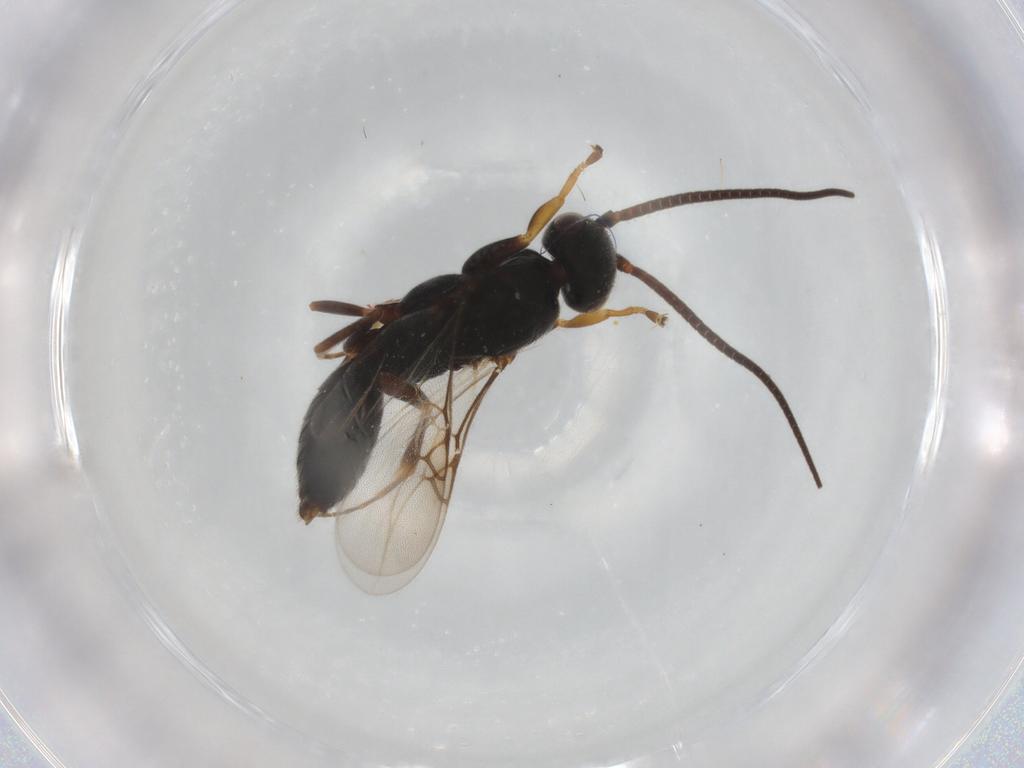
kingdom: Animalia
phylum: Arthropoda
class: Insecta
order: Hymenoptera
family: Sclerogibbidae
